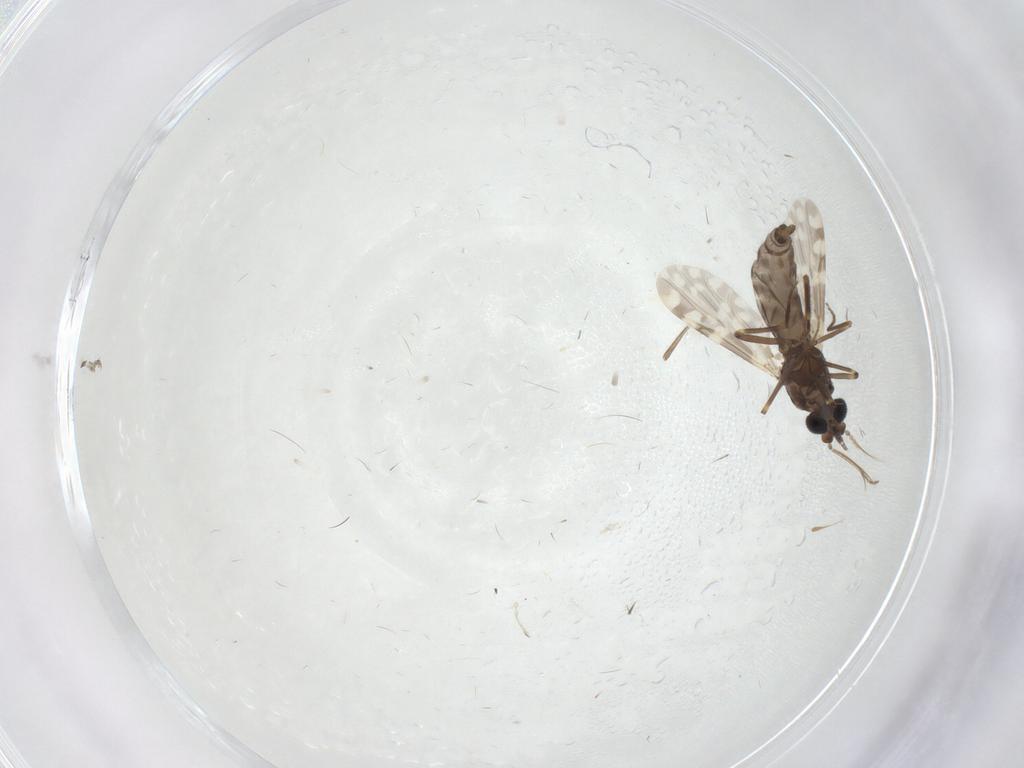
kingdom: Animalia
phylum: Arthropoda
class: Insecta
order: Diptera
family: Ceratopogonidae
